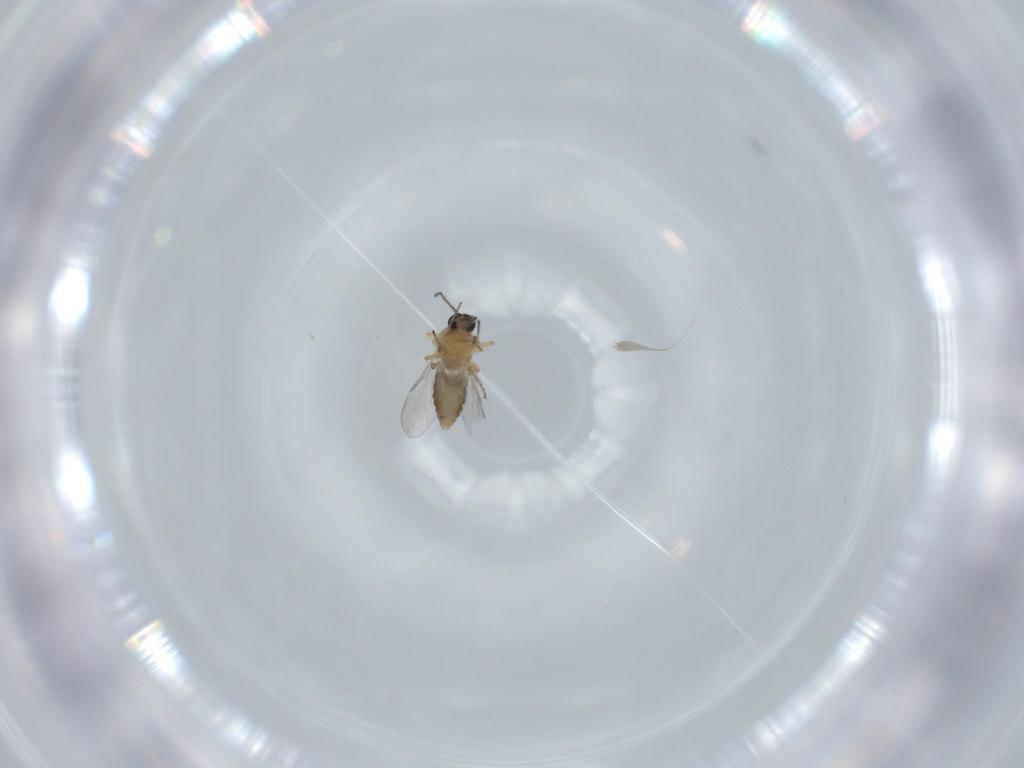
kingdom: Animalia
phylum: Arthropoda
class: Insecta
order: Diptera
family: Ceratopogonidae
